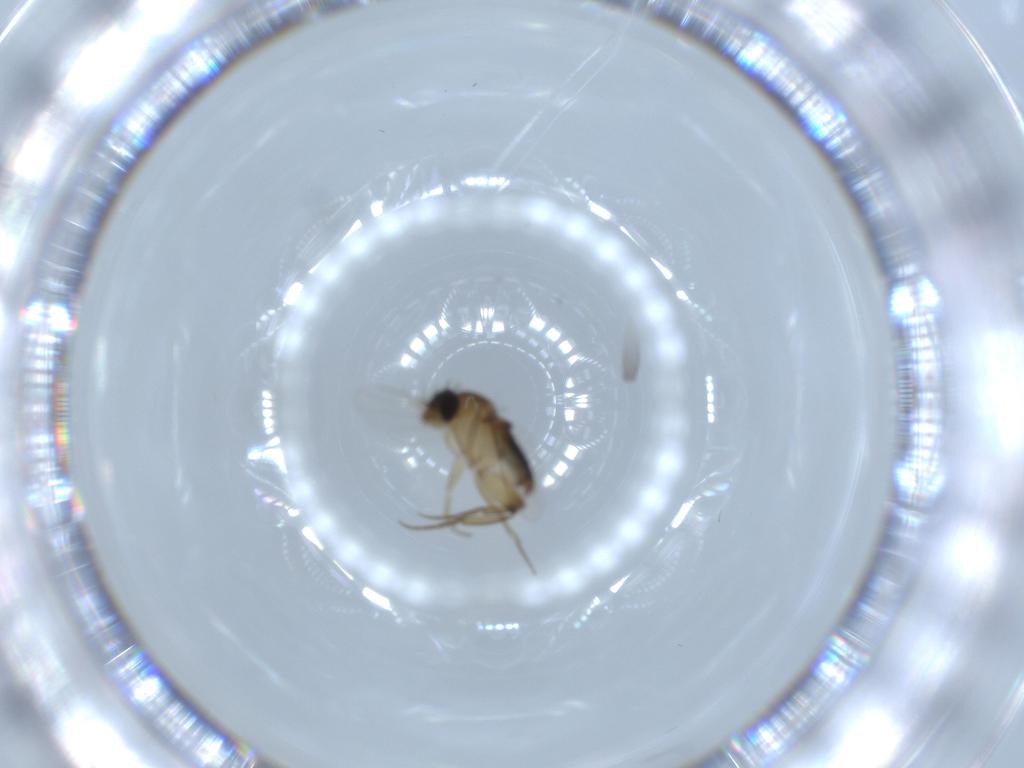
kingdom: Animalia
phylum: Arthropoda
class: Insecta
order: Diptera
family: Phoridae
